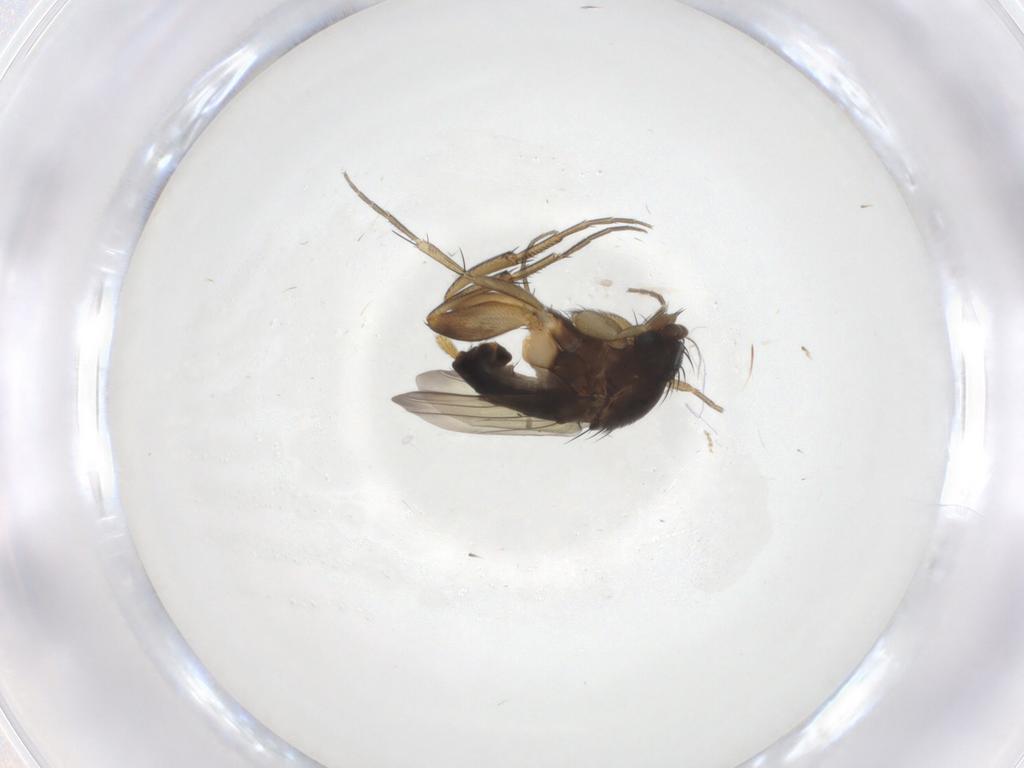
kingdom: Animalia
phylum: Arthropoda
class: Insecta
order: Diptera
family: Phoridae
